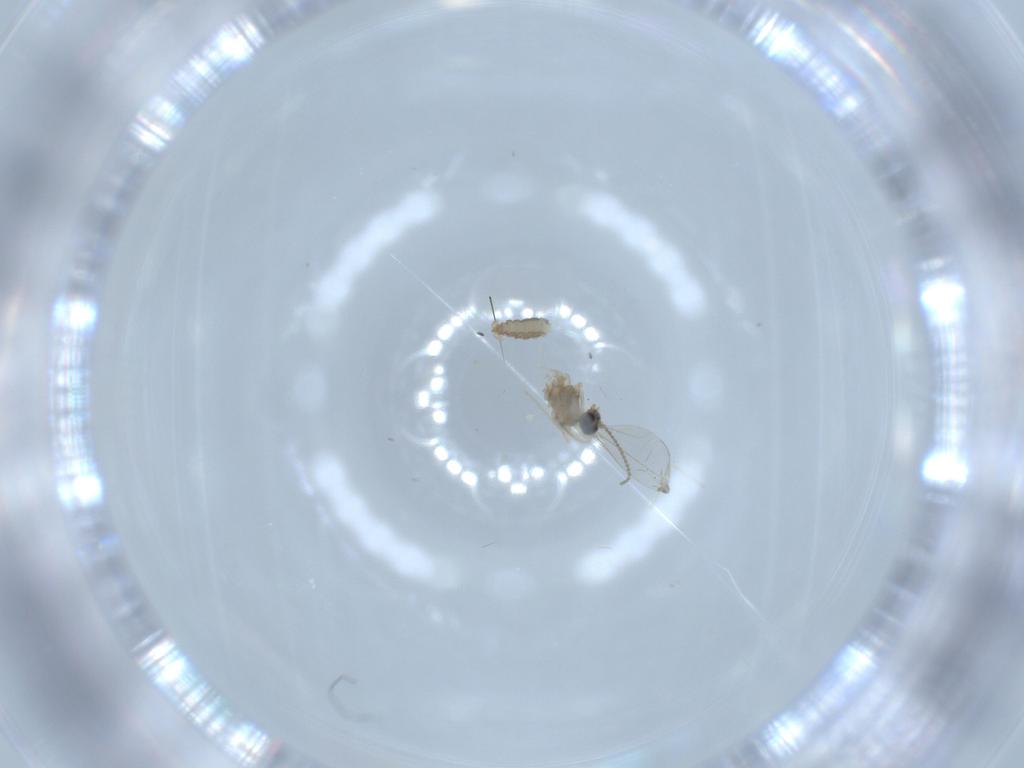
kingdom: Animalia
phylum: Arthropoda
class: Insecta
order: Diptera
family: Cecidomyiidae
